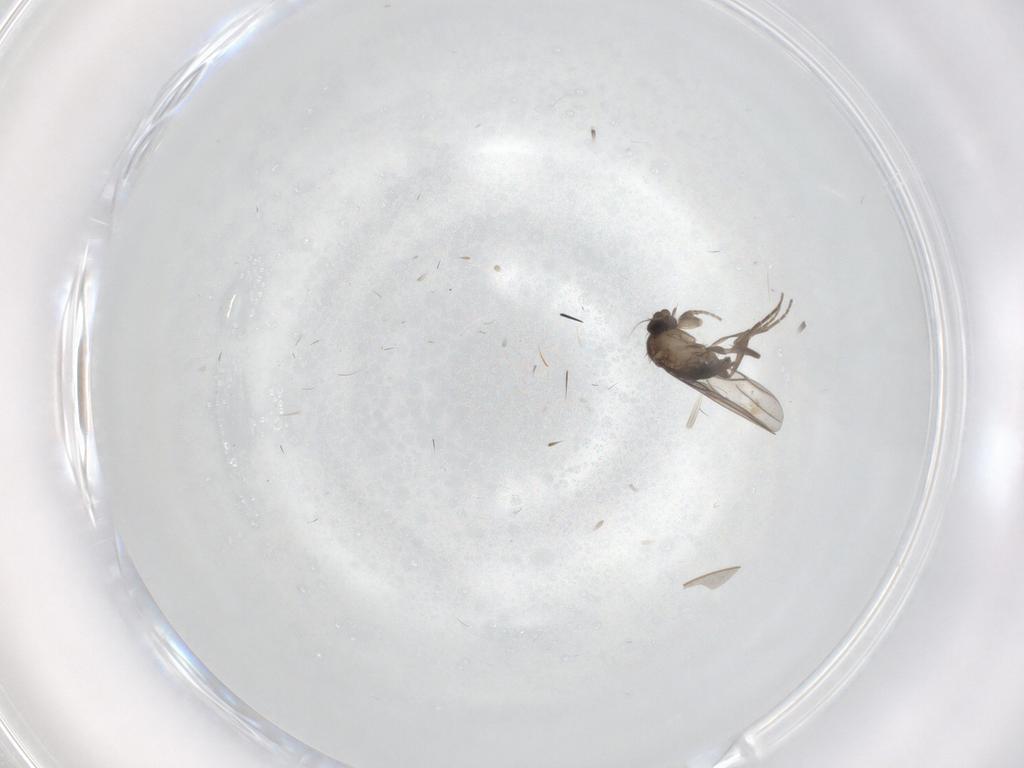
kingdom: Animalia
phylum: Arthropoda
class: Insecta
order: Diptera
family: Phoridae
